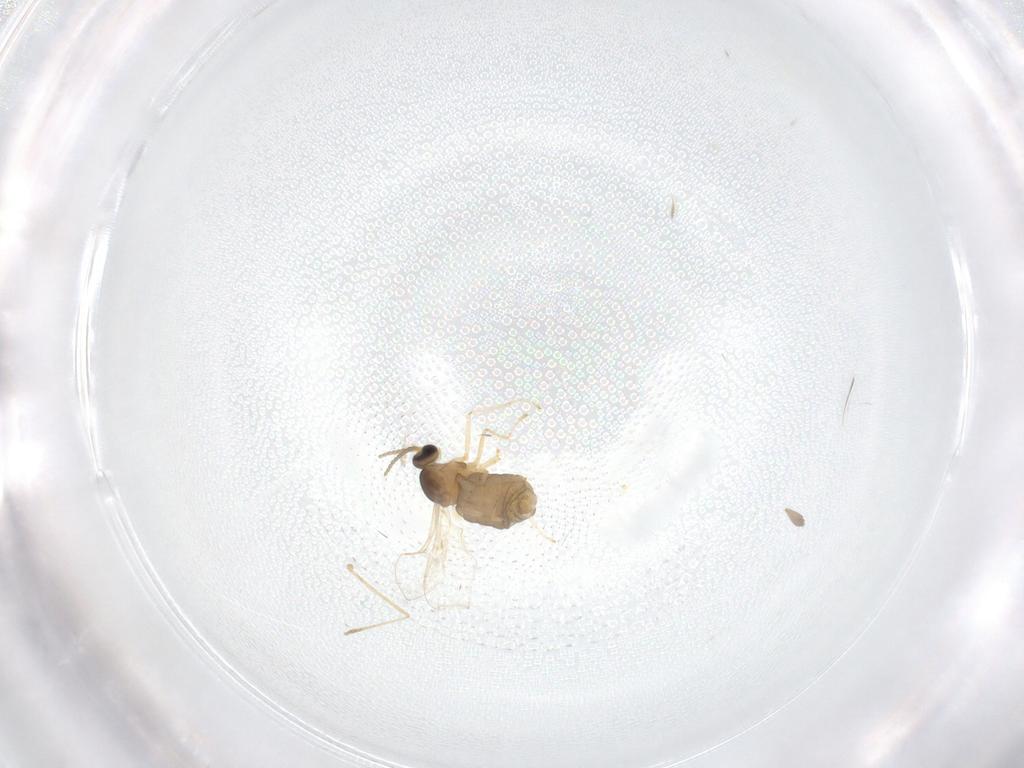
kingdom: Animalia
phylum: Arthropoda
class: Insecta
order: Diptera
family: Cecidomyiidae
